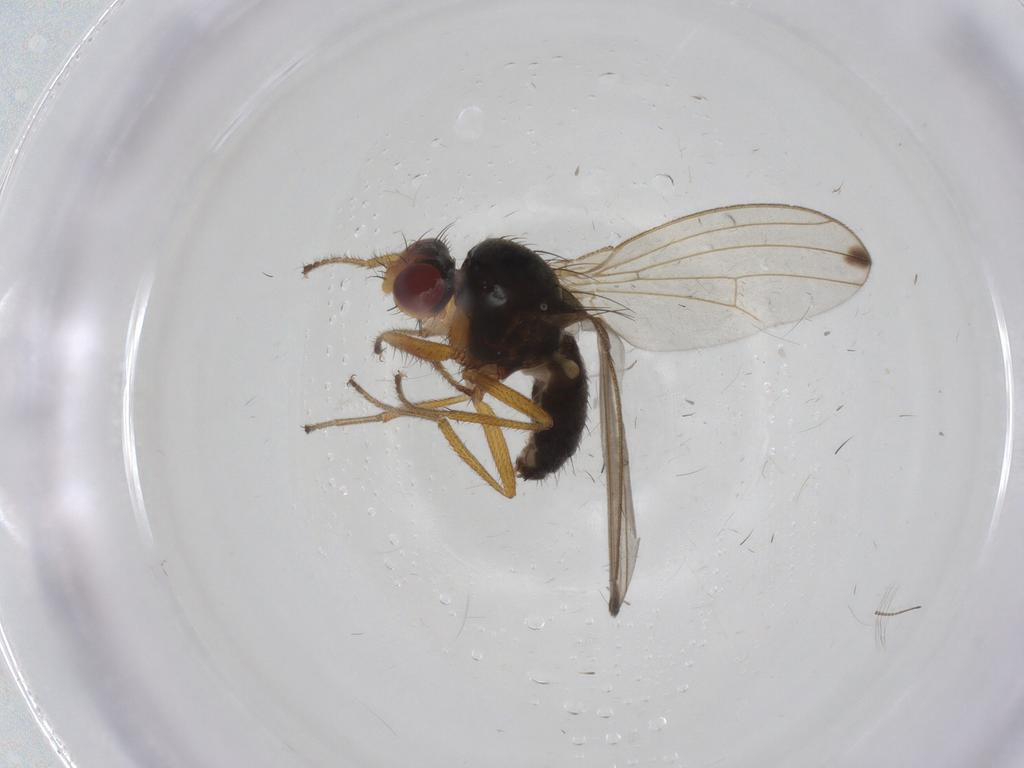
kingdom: Animalia
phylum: Arthropoda
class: Insecta
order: Diptera
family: Drosophilidae
